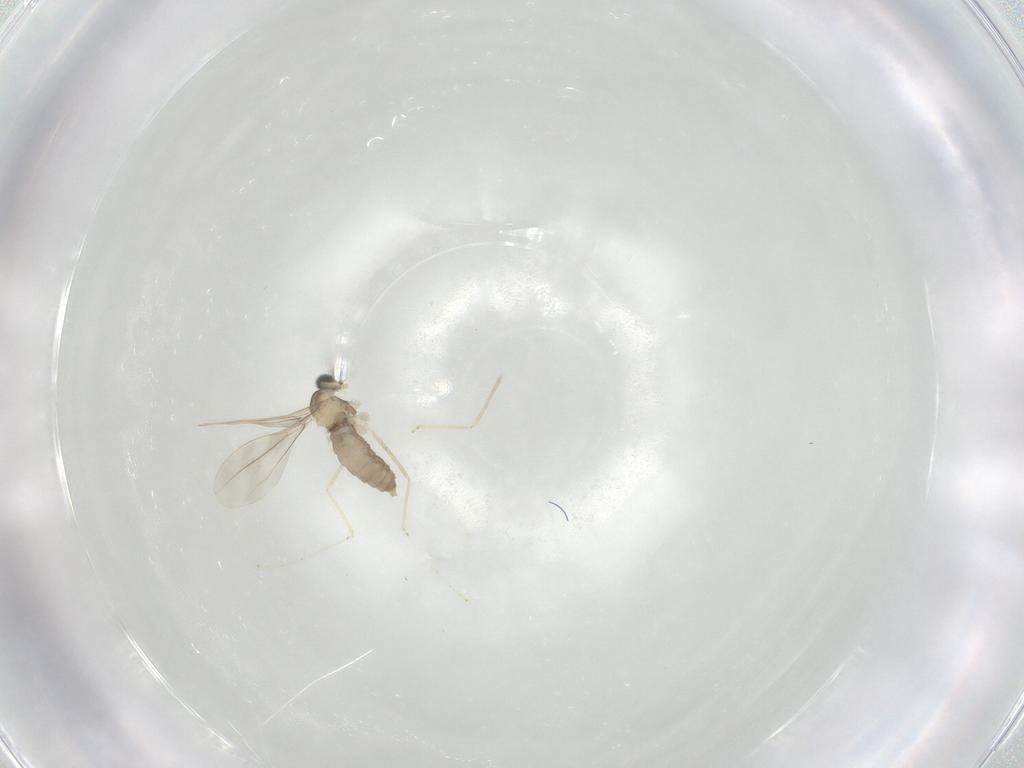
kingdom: Animalia
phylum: Arthropoda
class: Insecta
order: Diptera
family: Cecidomyiidae
